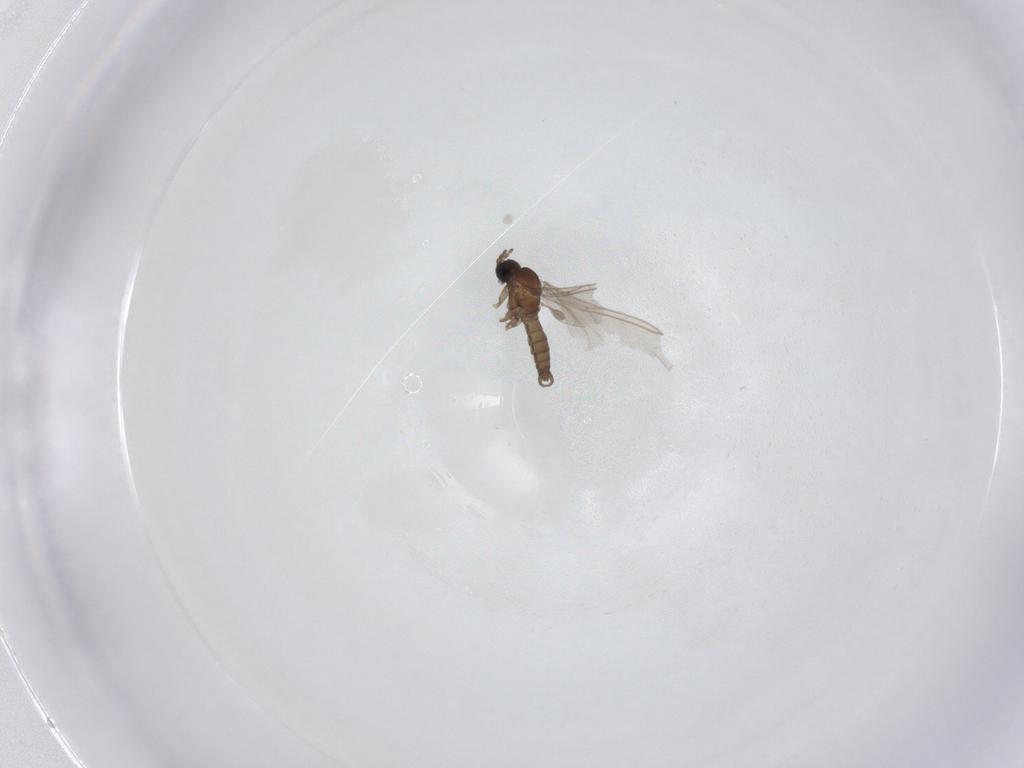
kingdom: Animalia
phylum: Arthropoda
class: Insecta
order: Diptera
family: Sciaridae
